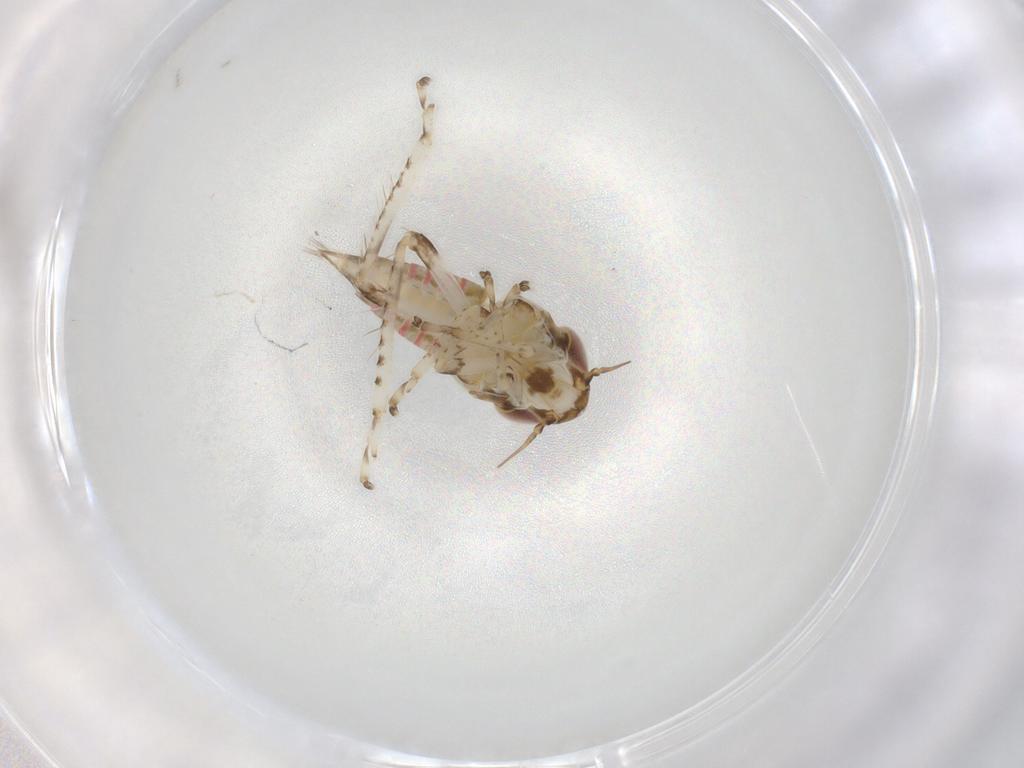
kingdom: Animalia
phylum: Arthropoda
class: Insecta
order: Hemiptera
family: Cicadellidae
